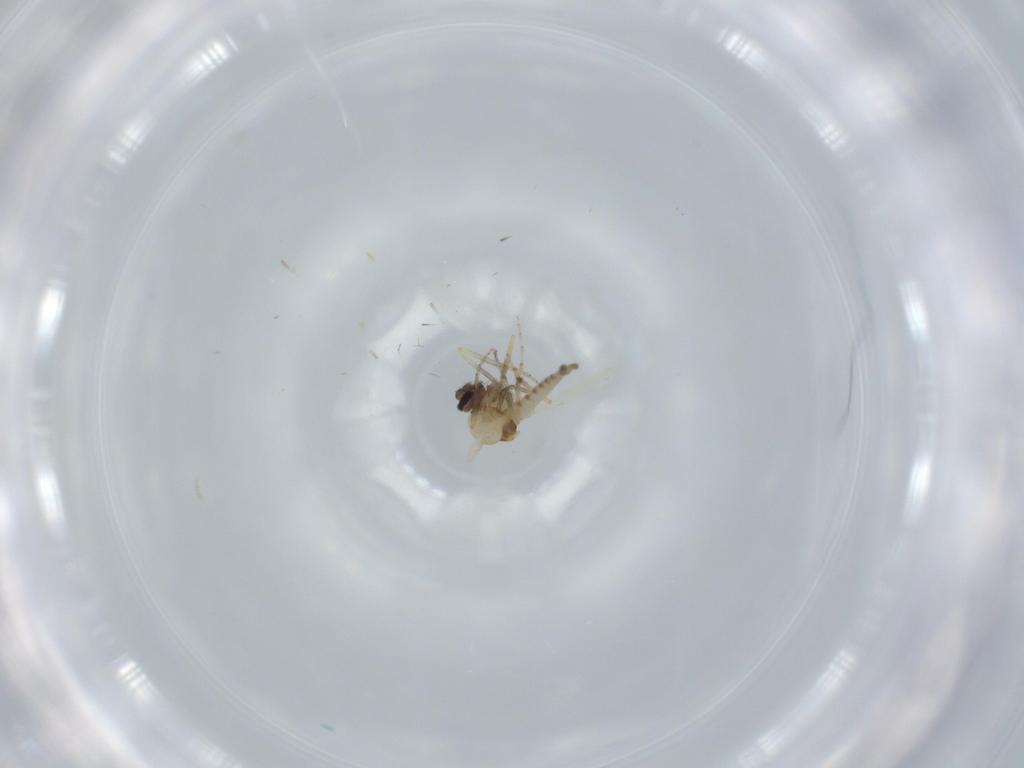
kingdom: Animalia
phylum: Arthropoda
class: Insecta
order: Diptera
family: Ceratopogonidae
